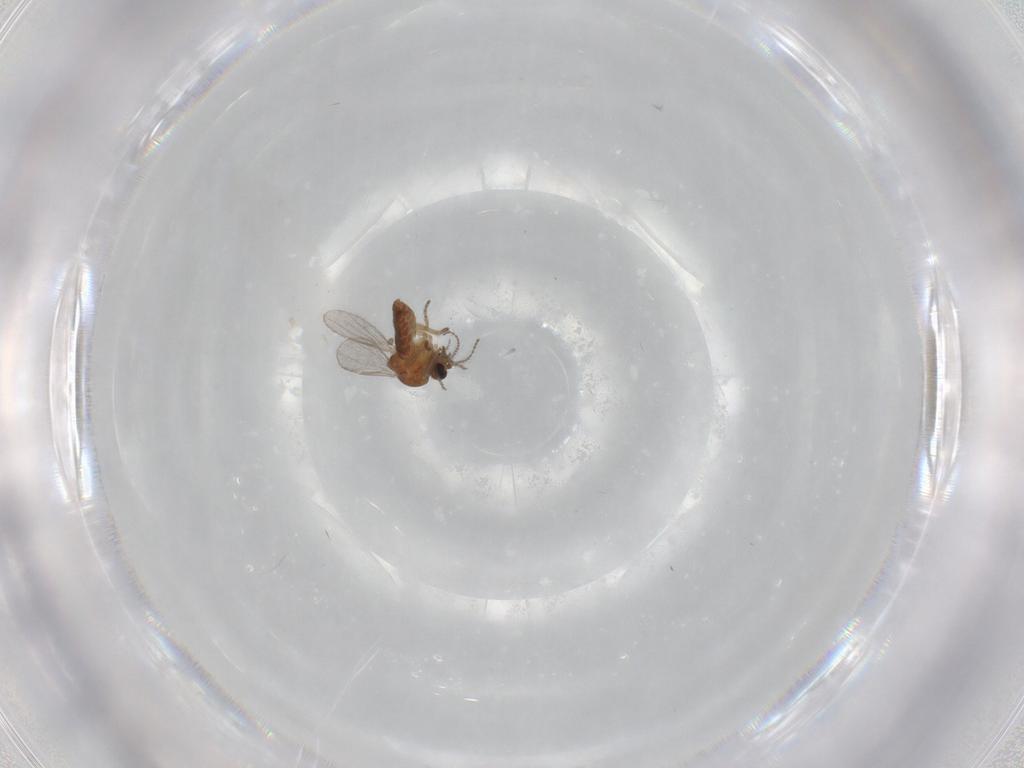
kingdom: Animalia
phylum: Arthropoda
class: Insecta
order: Diptera
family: Ceratopogonidae
